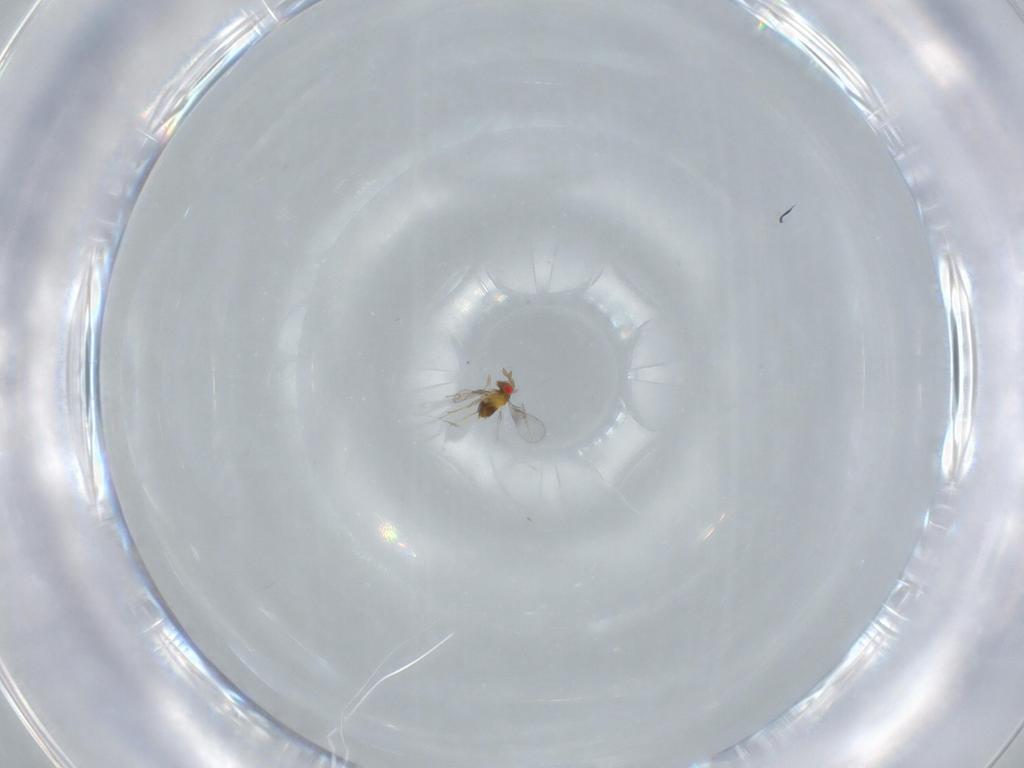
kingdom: Animalia
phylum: Arthropoda
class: Insecta
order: Hymenoptera
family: Trichogrammatidae
